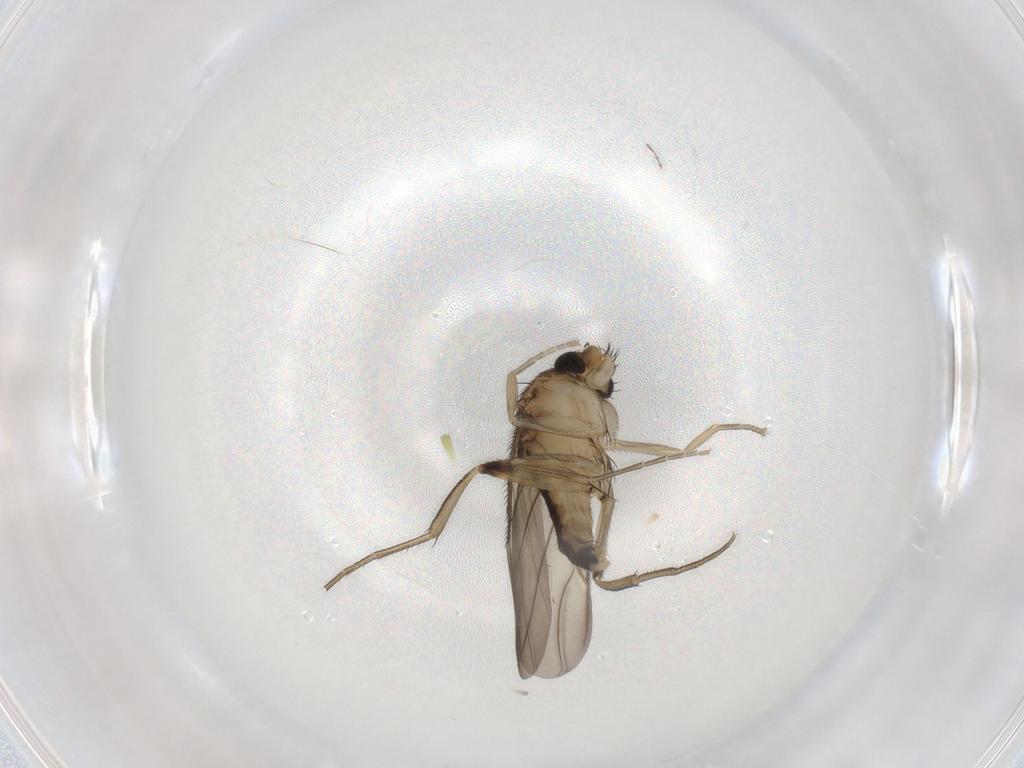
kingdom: Animalia
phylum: Arthropoda
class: Insecta
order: Diptera
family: Phoridae
